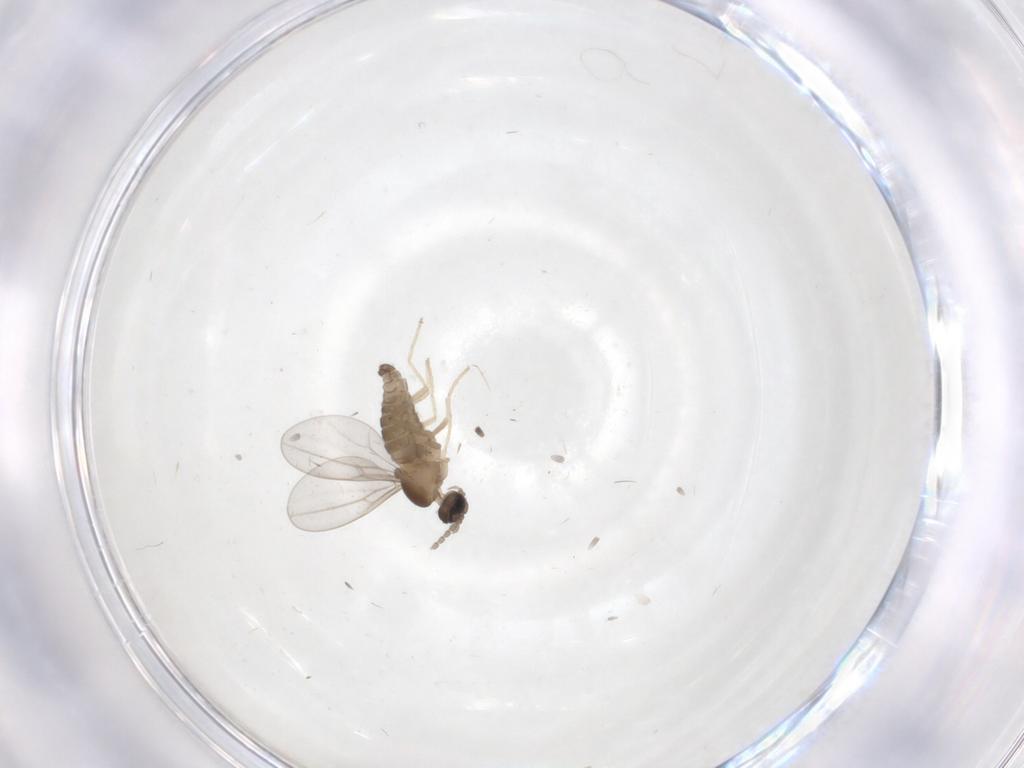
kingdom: Animalia
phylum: Arthropoda
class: Insecta
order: Diptera
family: Cecidomyiidae
